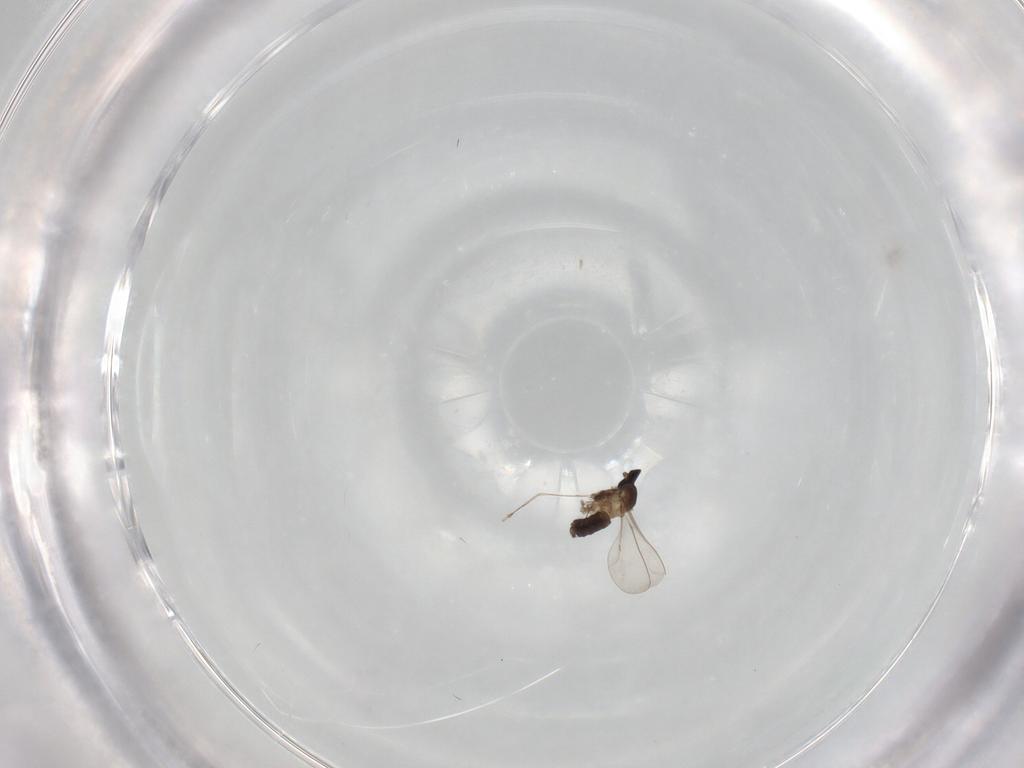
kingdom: Animalia
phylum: Arthropoda
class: Insecta
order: Diptera
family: Cecidomyiidae
